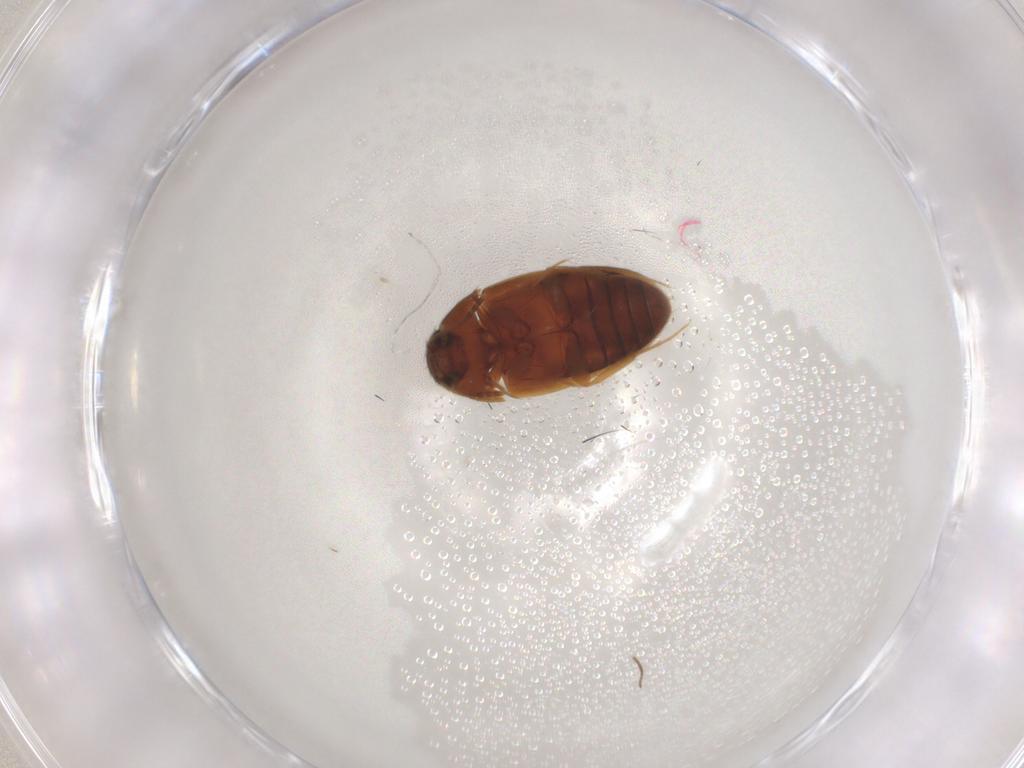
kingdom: Animalia
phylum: Arthropoda
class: Insecta
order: Coleoptera
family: Mycetophagidae
